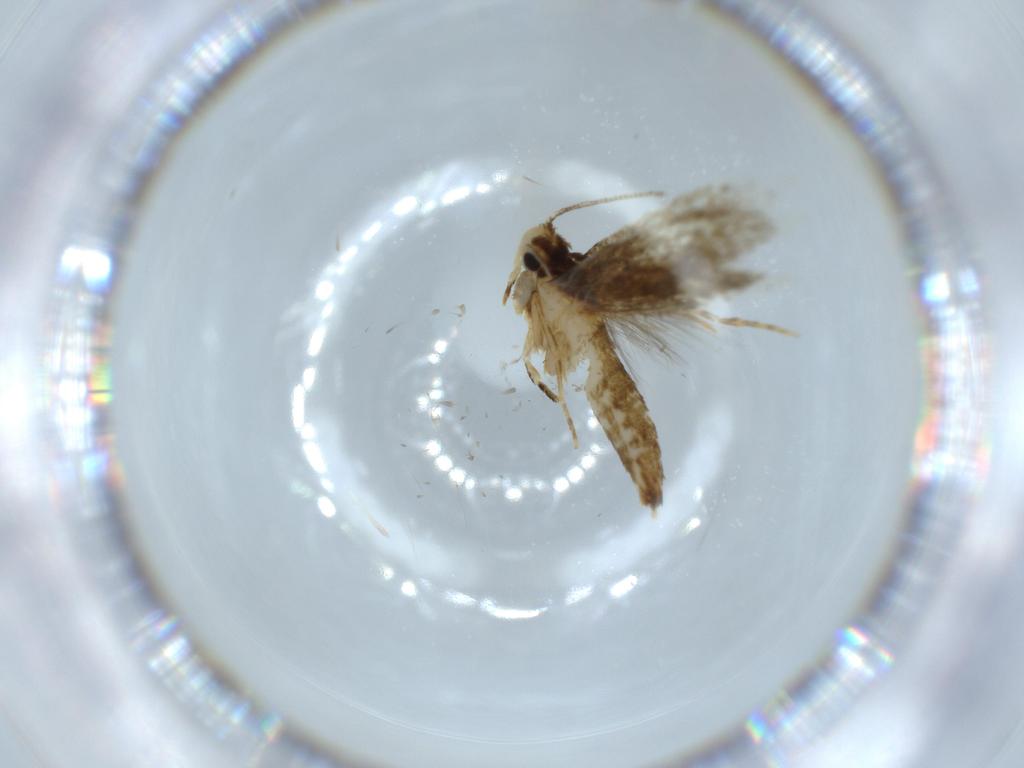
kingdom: Animalia
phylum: Arthropoda
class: Insecta
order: Lepidoptera
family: Tineidae
